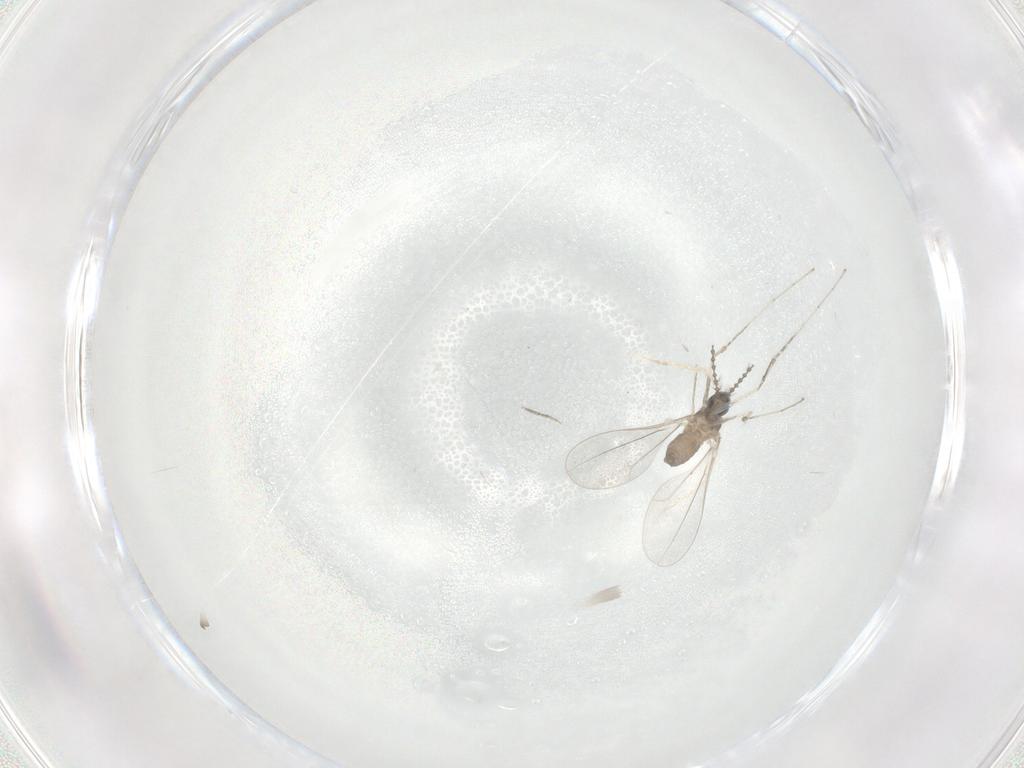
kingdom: Animalia
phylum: Arthropoda
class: Insecta
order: Diptera
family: Cecidomyiidae
